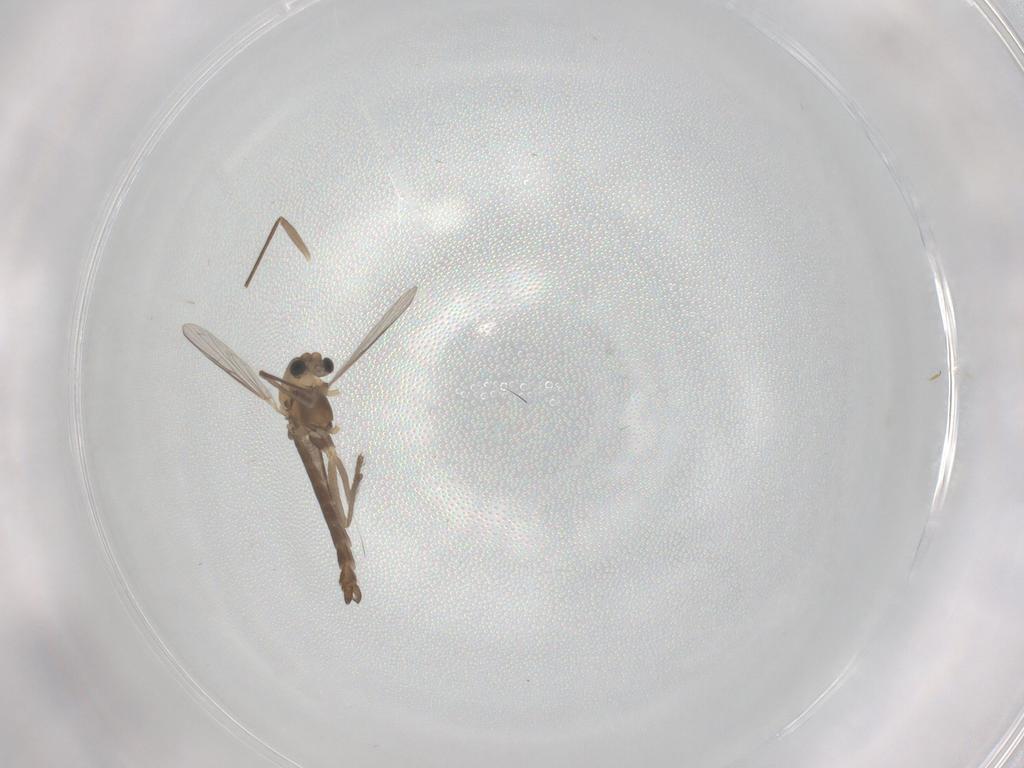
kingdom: Animalia
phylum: Arthropoda
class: Insecta
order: Diptera
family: Chironomidae
